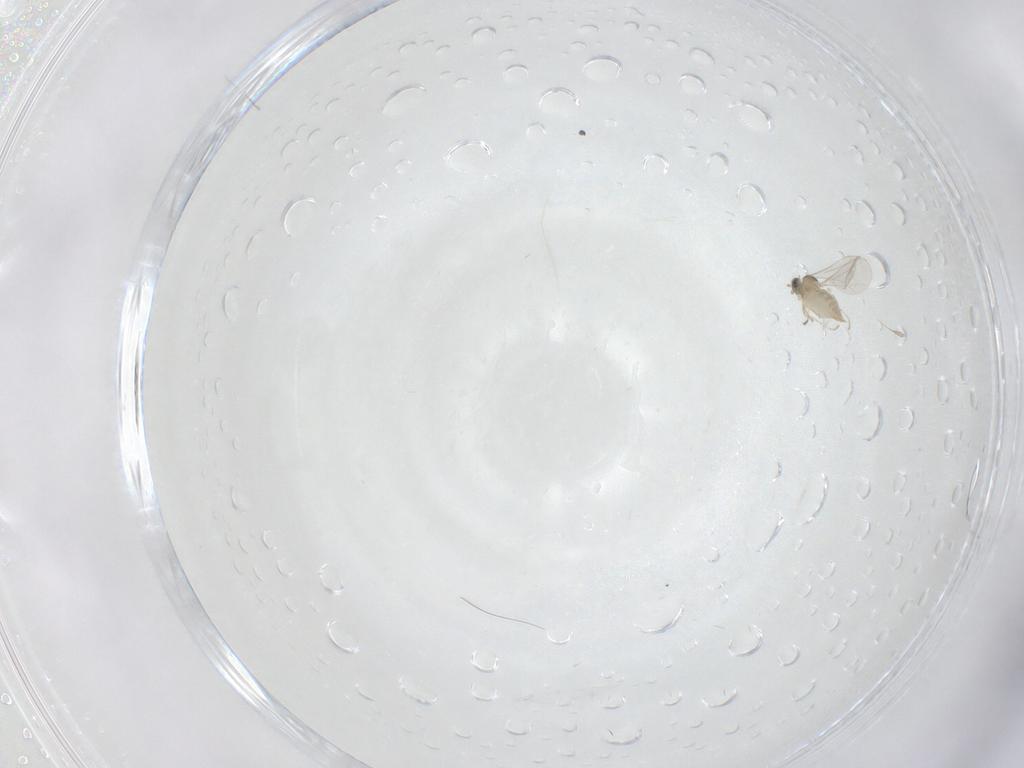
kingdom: Animalia
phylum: Arthropoda
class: Insecta
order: Diptera
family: Cecidomyiidae
